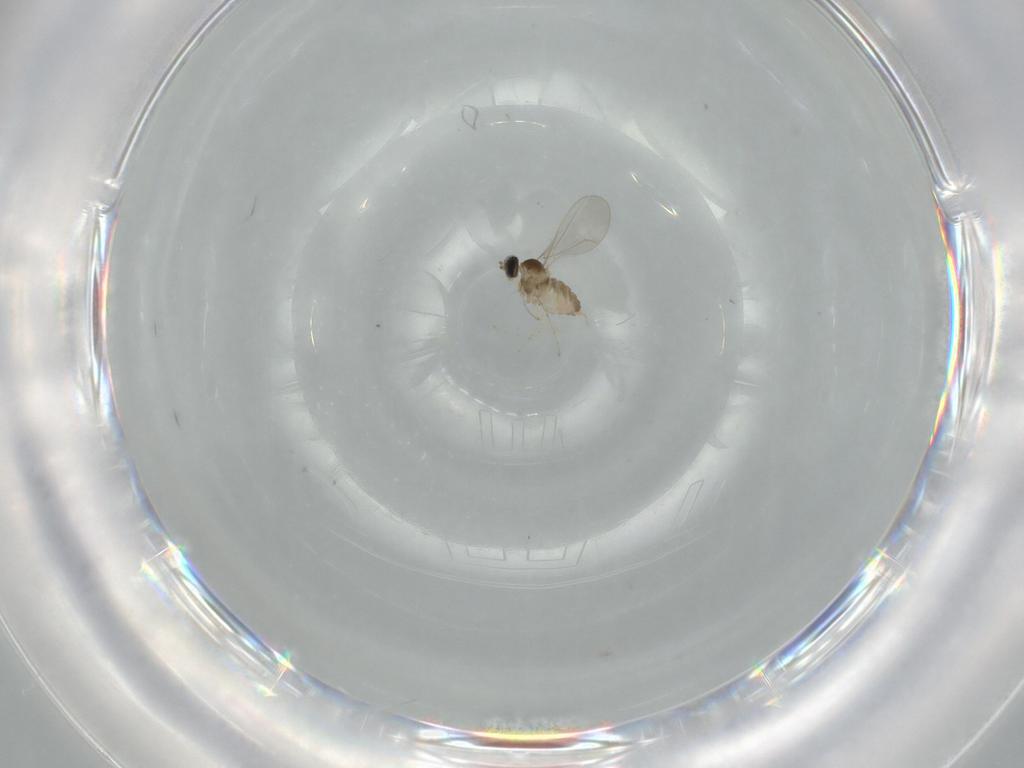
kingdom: Animalia
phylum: Arthropoda
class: Insecta
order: Diptera
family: Cecidomyiidae
